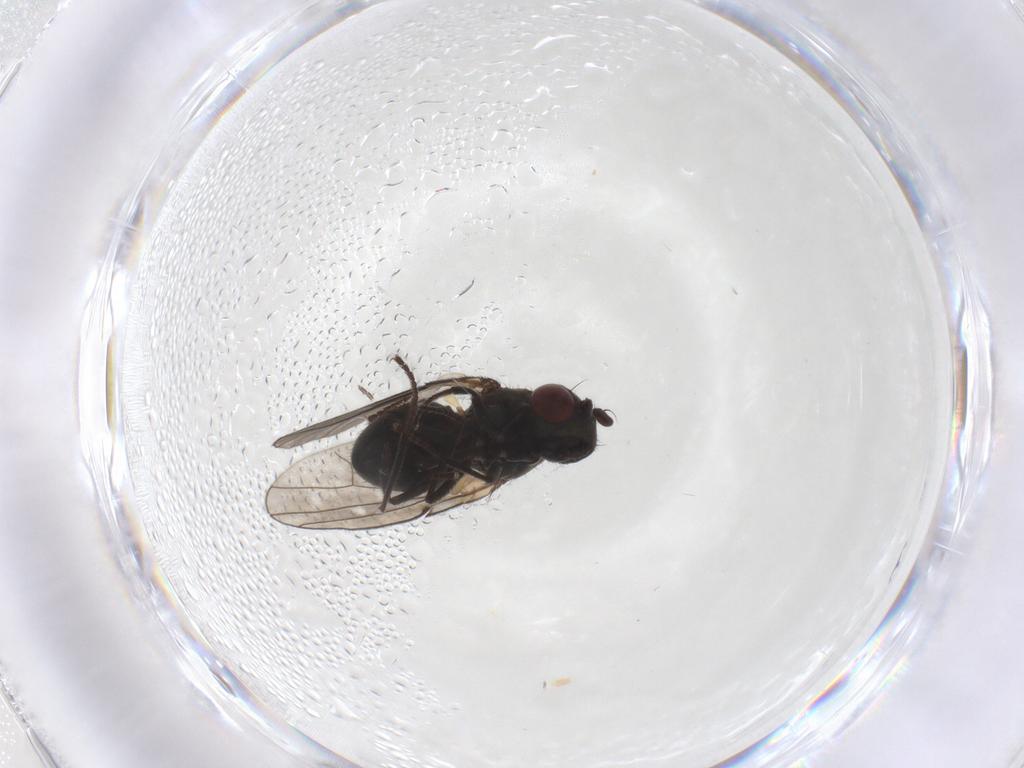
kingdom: Animalia
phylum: Arthropoda
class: Insecta
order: Diptera
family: Ephydridae
